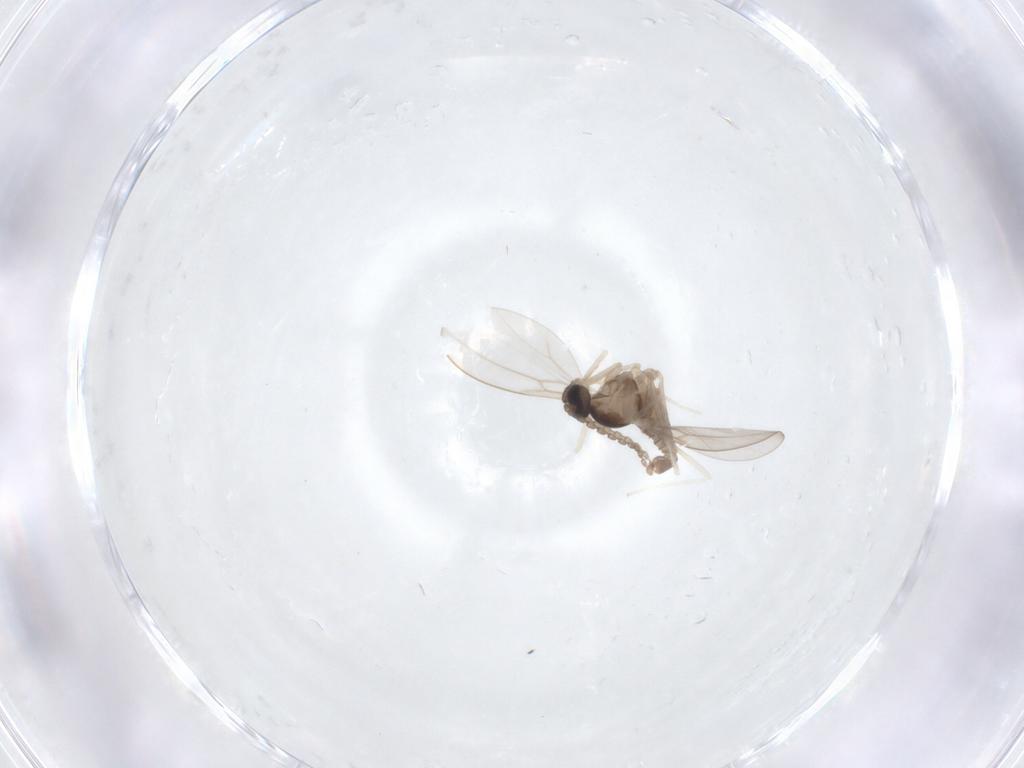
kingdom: Animalia
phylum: Arthropoda
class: Insecta
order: Diptera
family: Cecidomyiidae
